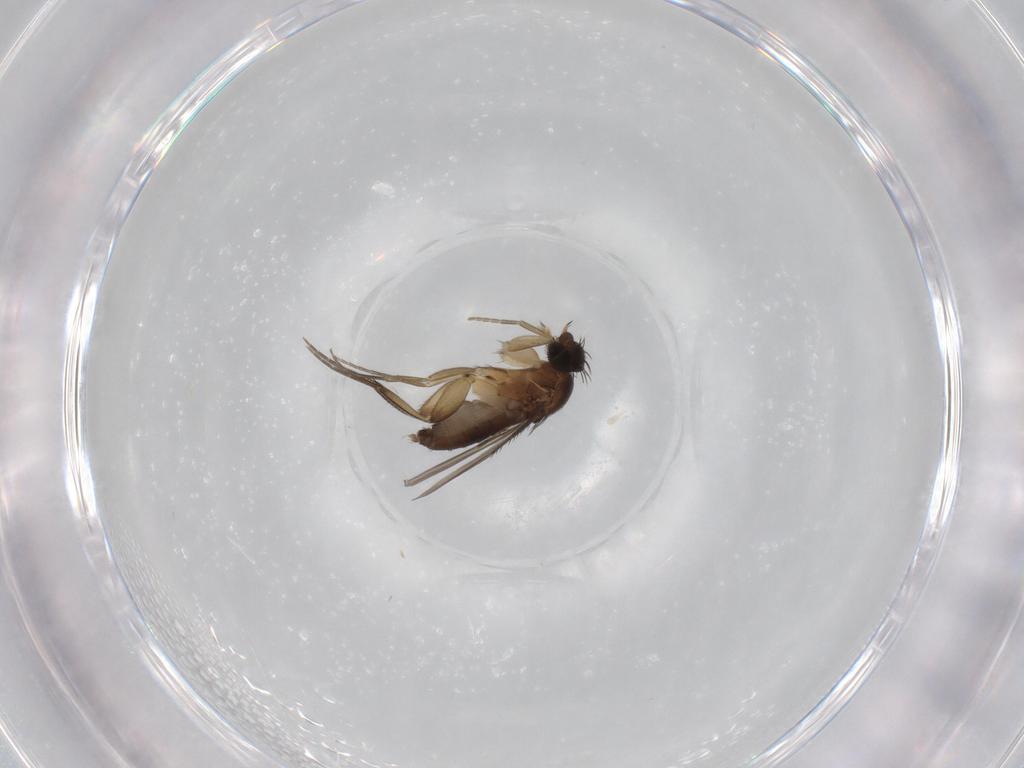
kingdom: Animalia
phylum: Arthropoda
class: Insecta
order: Diptera
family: Phoridae
